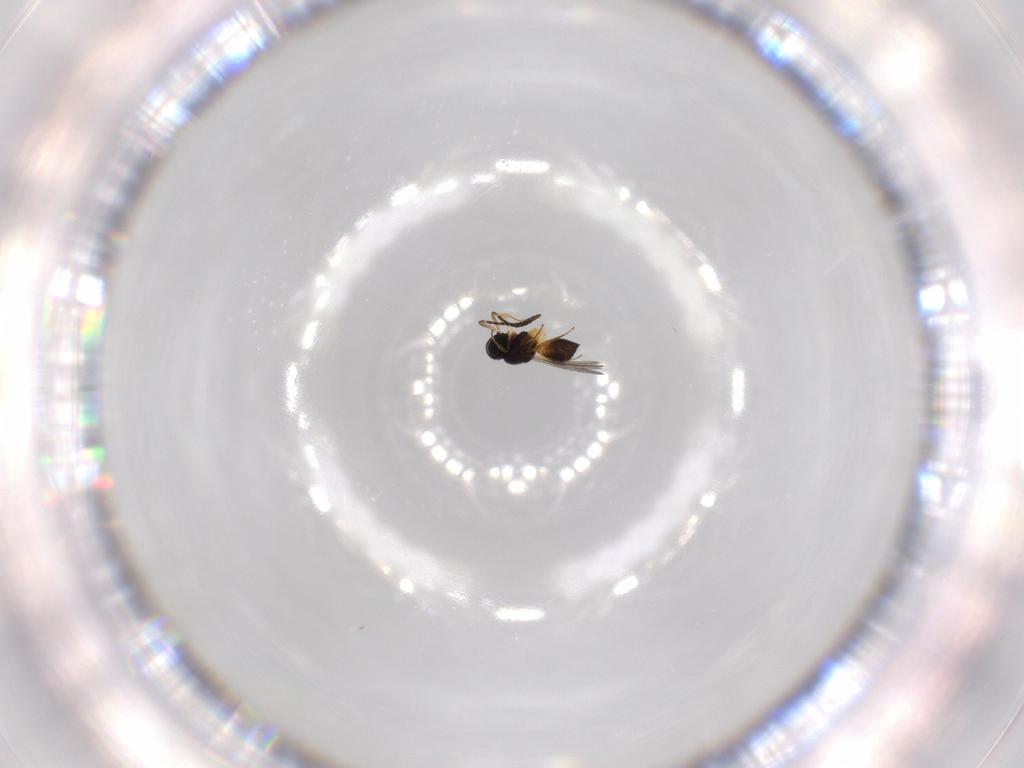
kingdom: Animalia
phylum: Arthropoda
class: Insecta
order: Hymenoptera
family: Scelionidae
